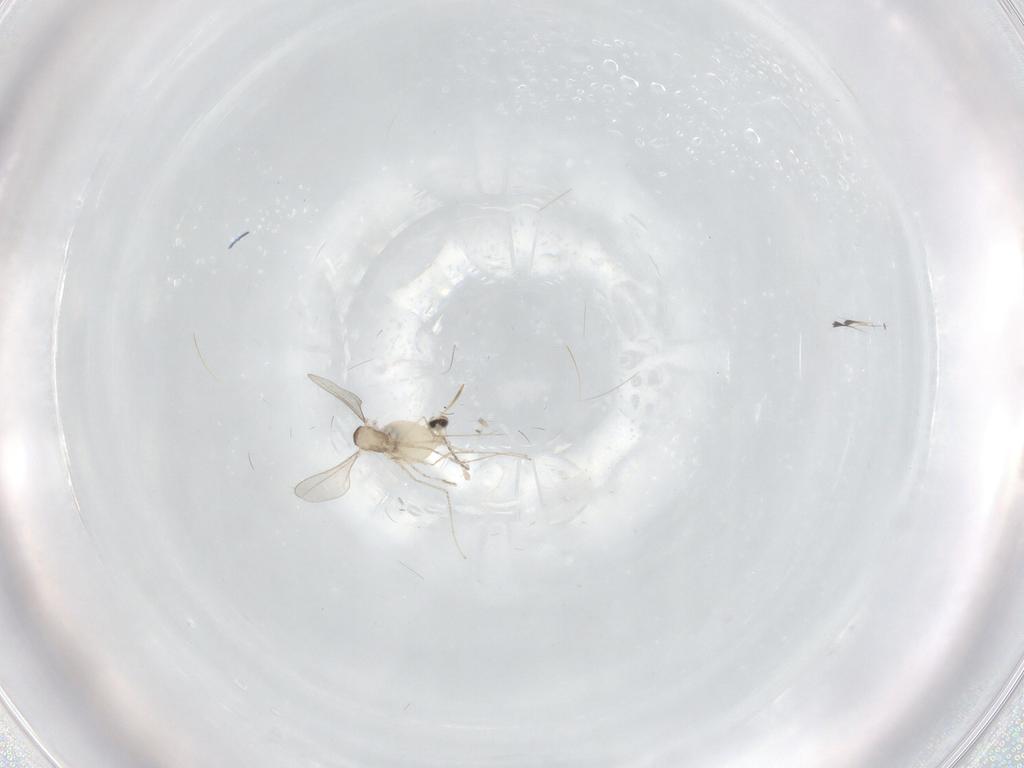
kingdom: Animalia
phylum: Arthropoda
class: Insecta
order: Diptera
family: Cecidomyiidae
